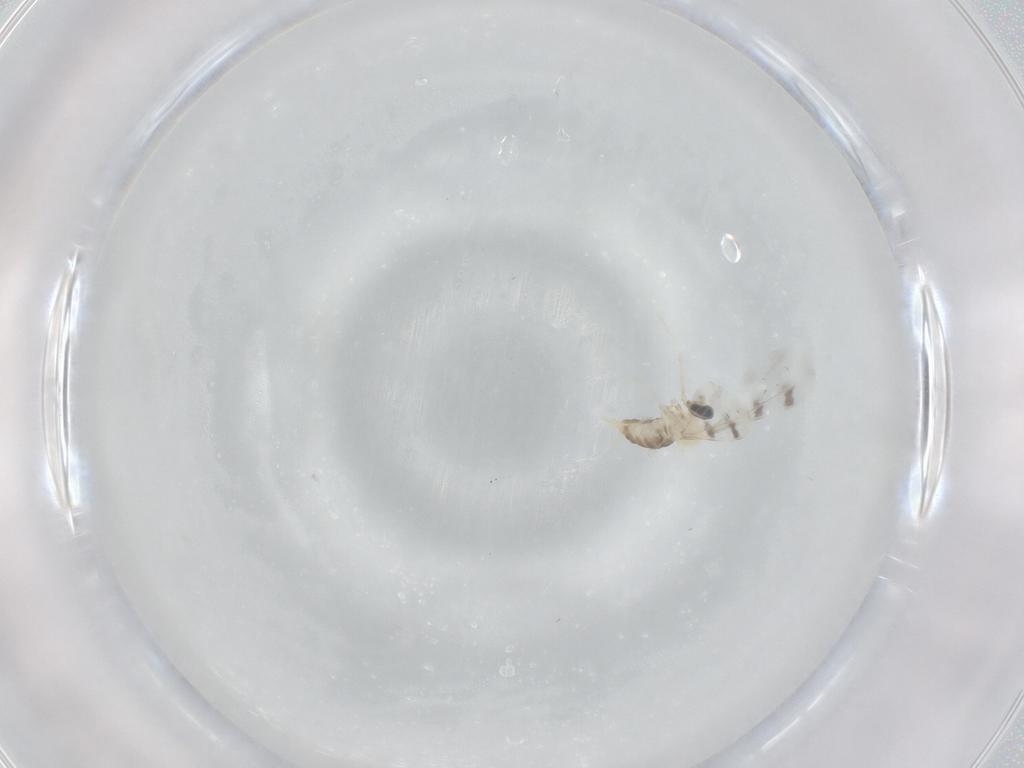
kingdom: Animalia
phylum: Arthropoda
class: Insecta
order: Diptera
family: Cecidomyiidae
